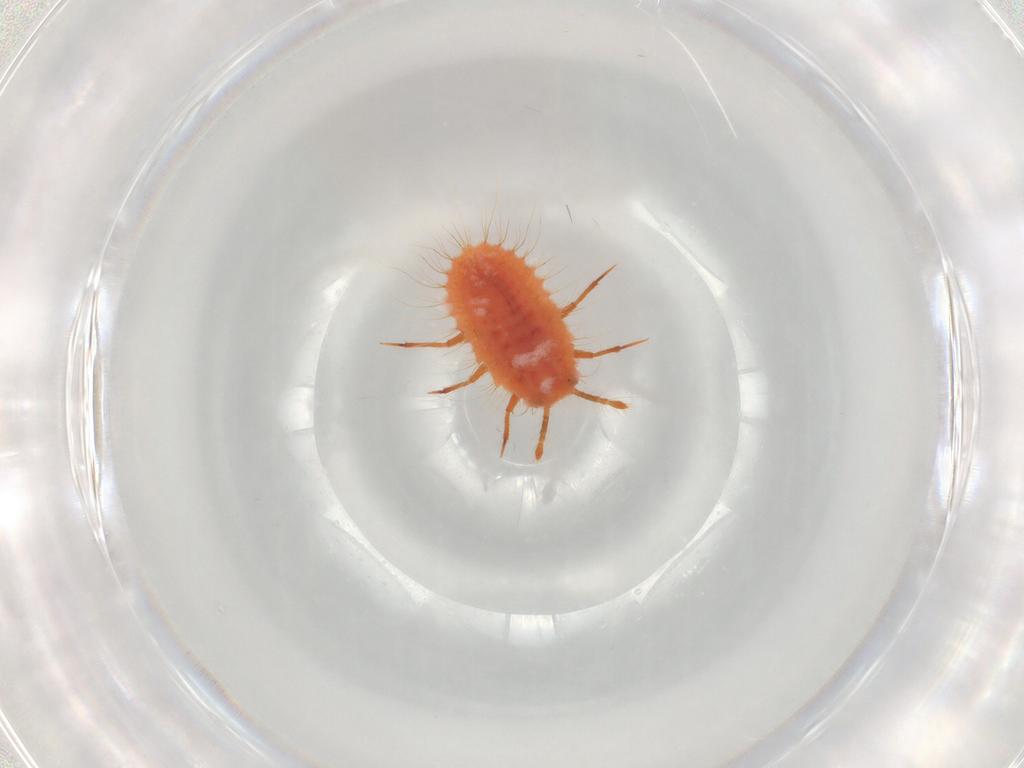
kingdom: Animalia
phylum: Arthropoda
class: Insecta
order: Hemiptera
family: Coccoidea_incertae_sedis
